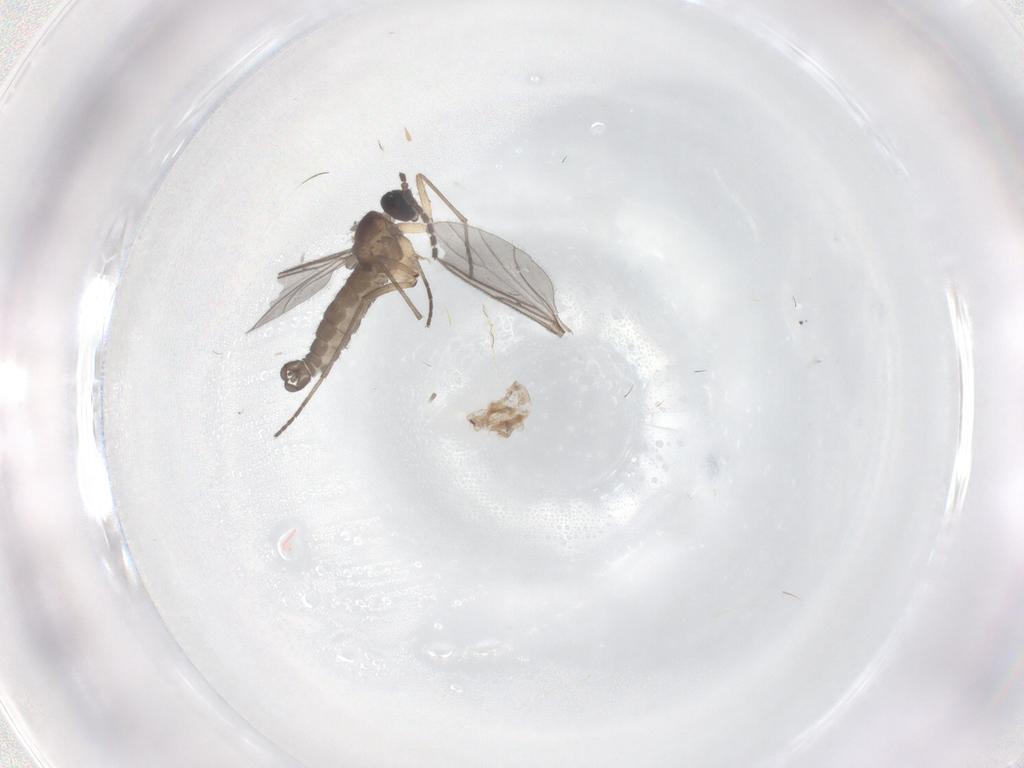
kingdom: Animalia
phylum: Arthropoda
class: Insecta
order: Diptera
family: Sciaridae
